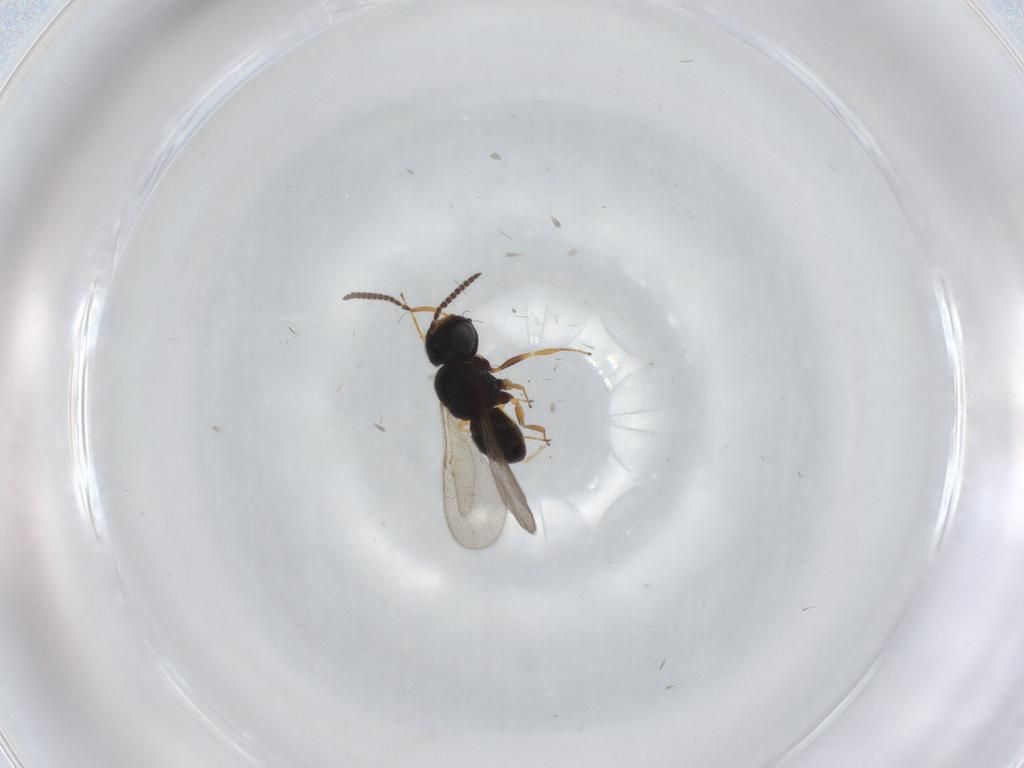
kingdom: Animalia
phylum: Arthropoda
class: Insecta
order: Hymenoptera
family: Scelionidae
